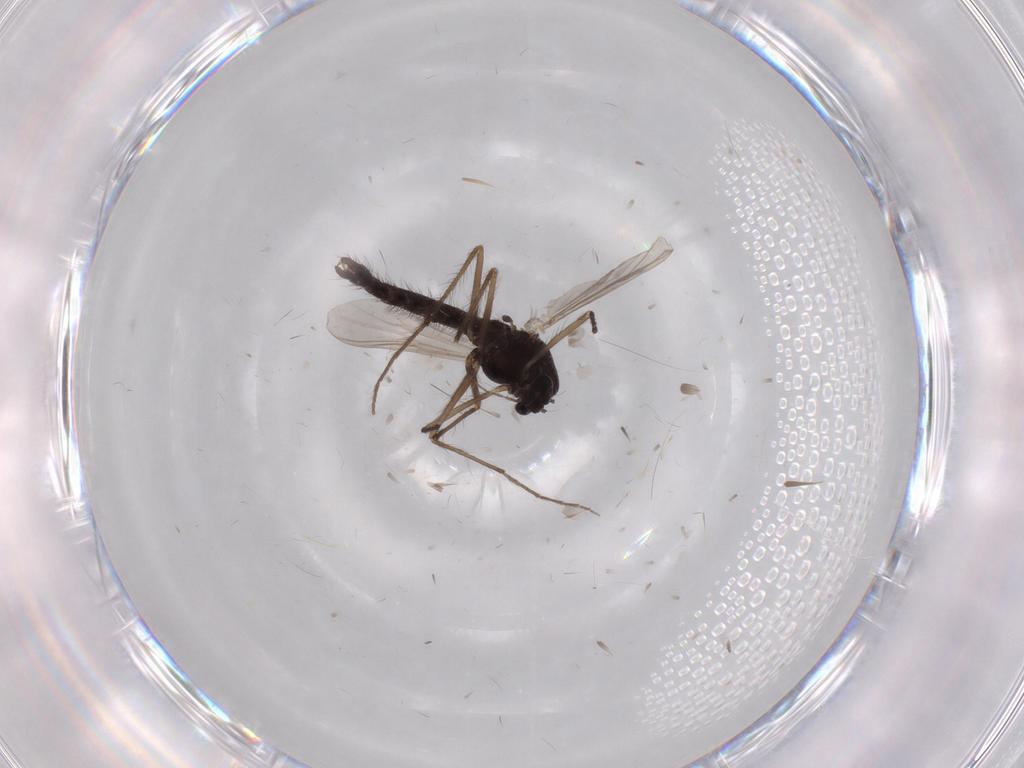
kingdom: Animalia
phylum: Arthropoda
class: Insecta
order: Diptera
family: Chironomidae
